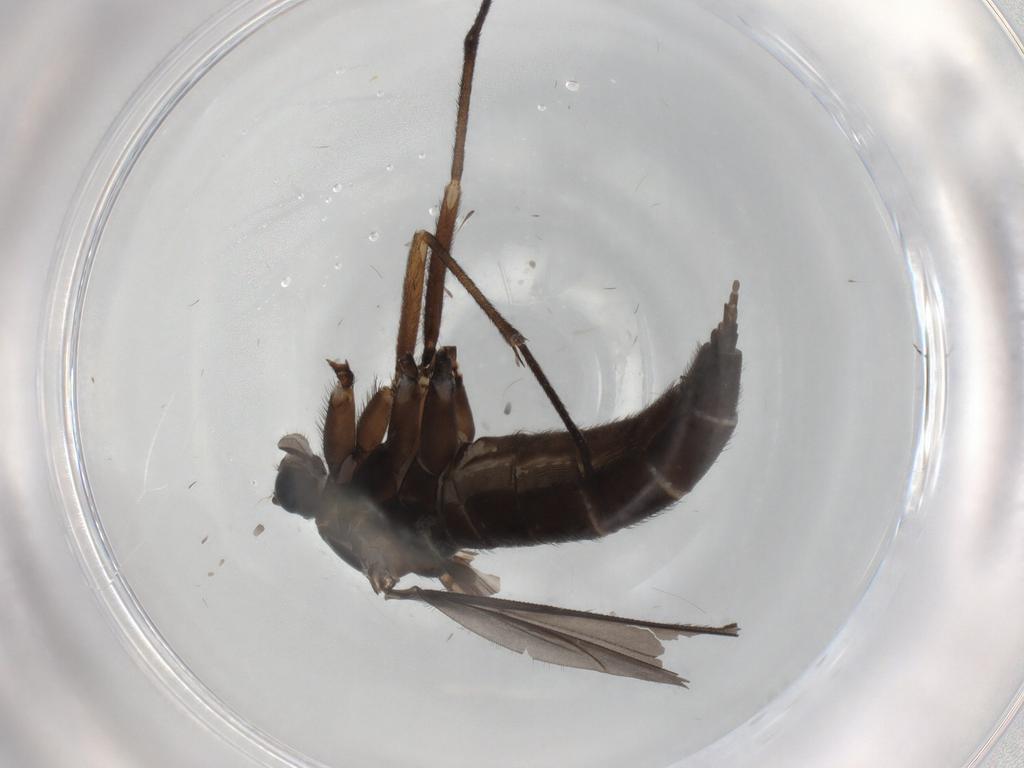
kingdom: Animalia
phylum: Arthropoda
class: Insecta
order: Diptera
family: Sciaridae
